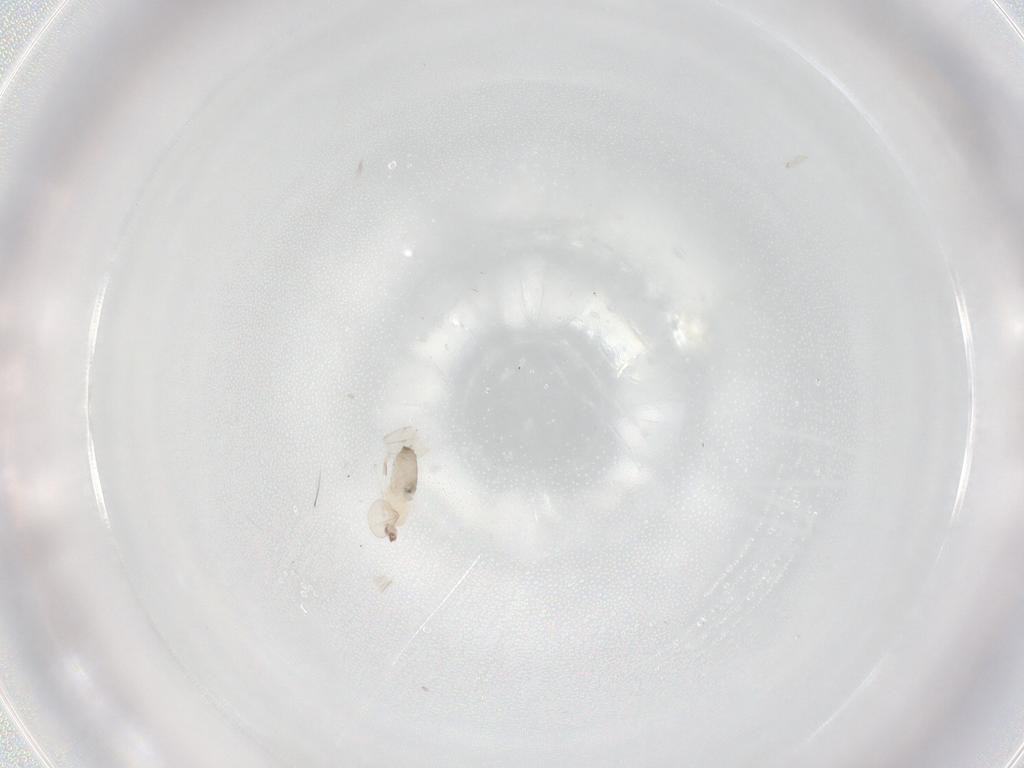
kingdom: Animalia
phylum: Arthropoda
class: Insecta
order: Diptera
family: Cecidomyiidae
